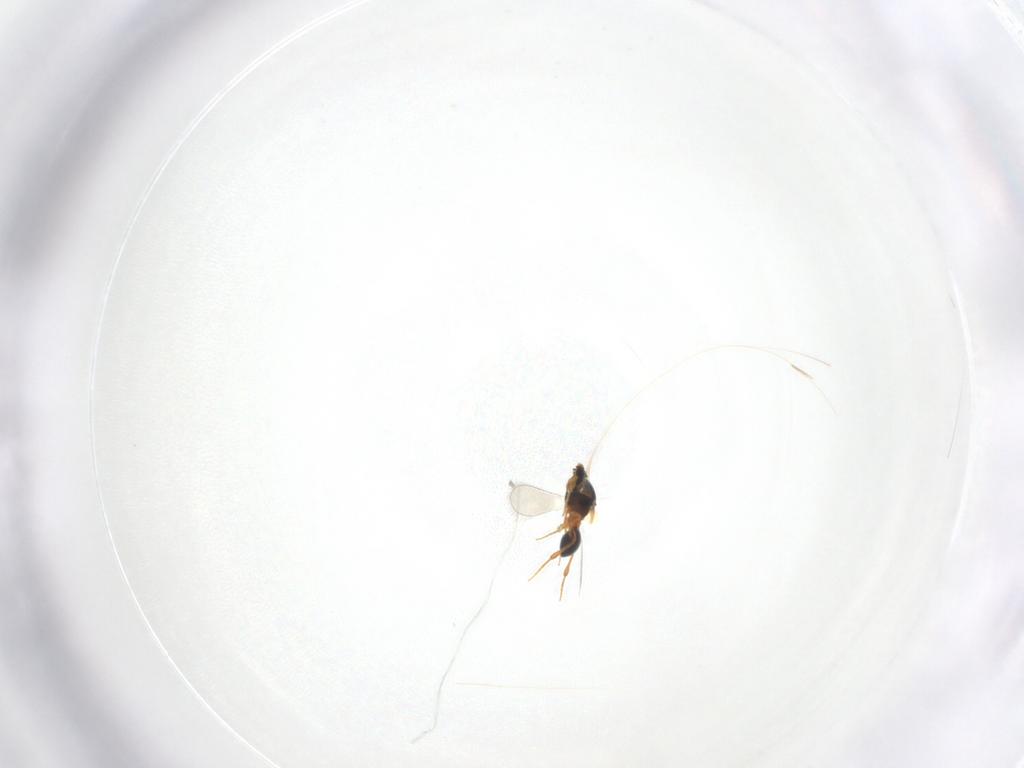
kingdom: Animalia
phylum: Arthropoda
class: Insecta
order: Hymenoptera
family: Platygastridae
